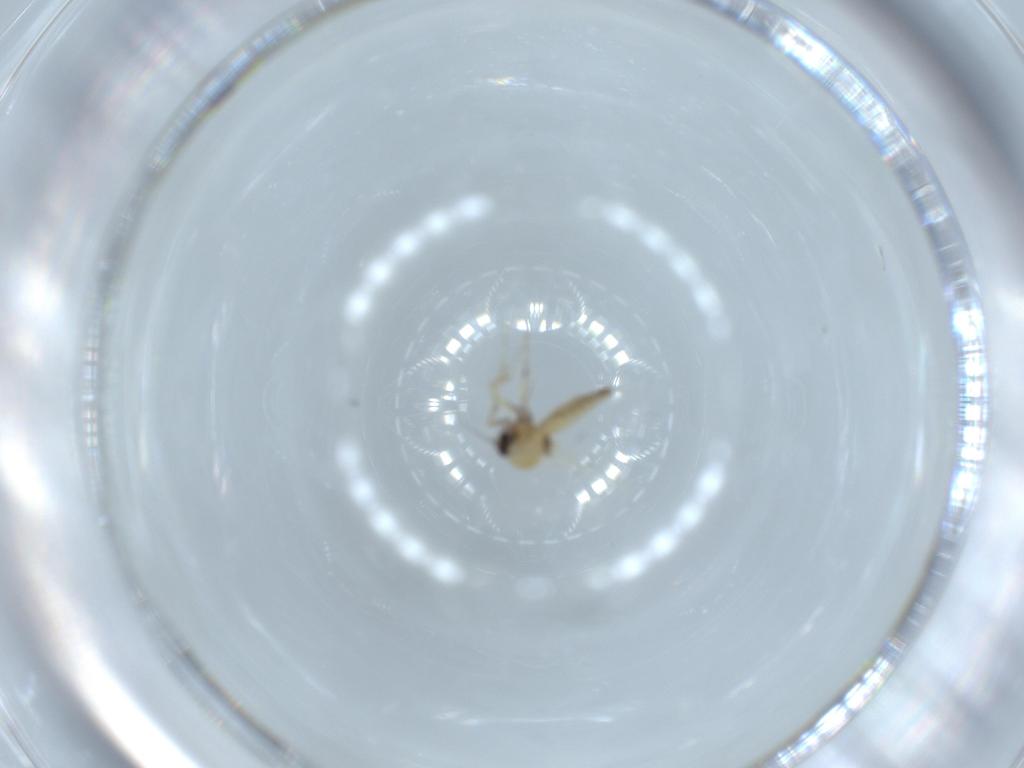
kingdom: Animalia
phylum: Arthropoda
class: Insecta
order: Diptera
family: Ceratopogonidae
